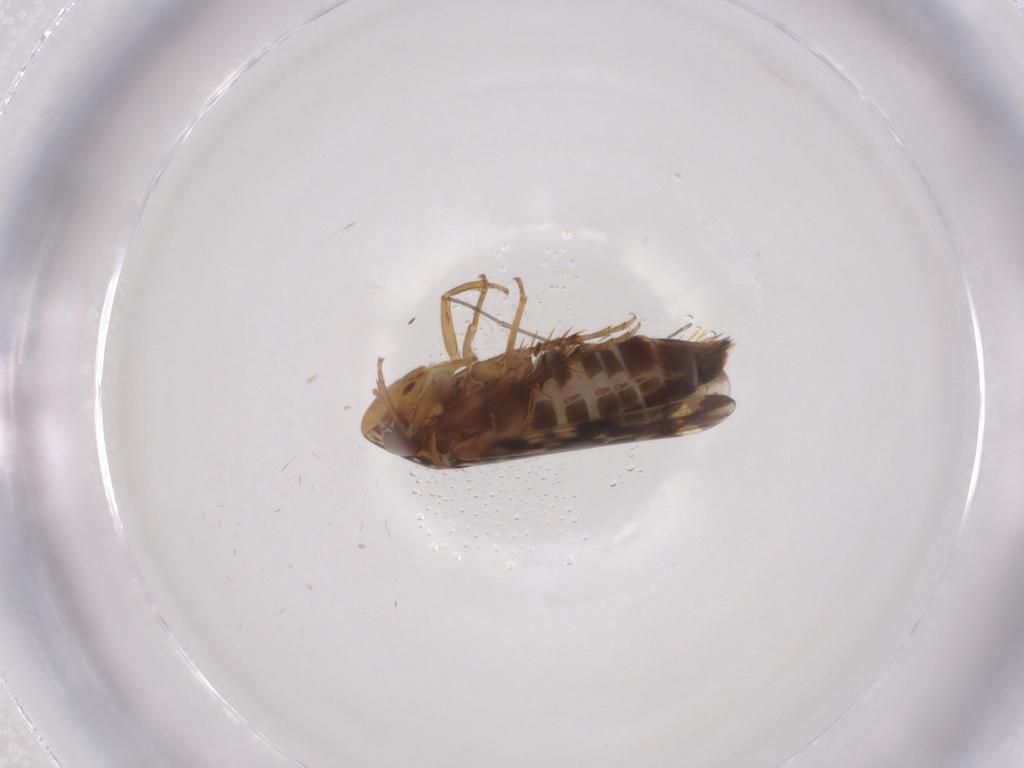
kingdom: Animalia
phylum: Arthropoda
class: Insecta
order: Hemiptera
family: Cicadellidae
